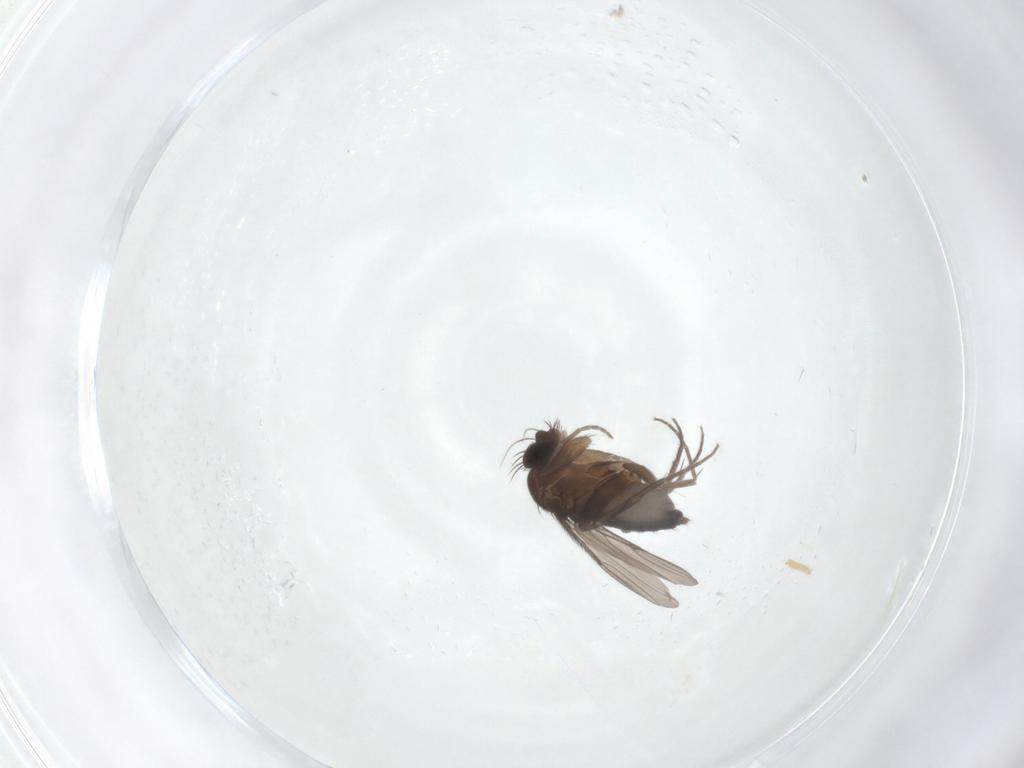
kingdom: Animalia
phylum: Arthropoda
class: Insecta
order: Diptera
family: Phoridae
